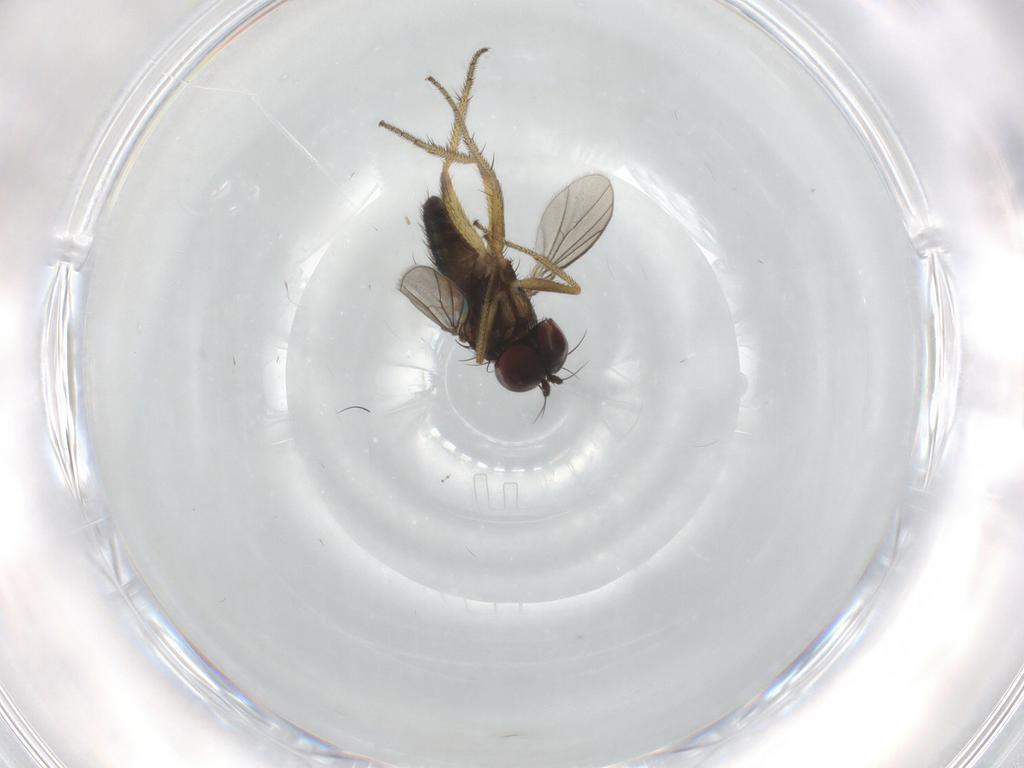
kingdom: Animalia
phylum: Arthropoda
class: Insecta
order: Diptera
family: Dolichopodidae
